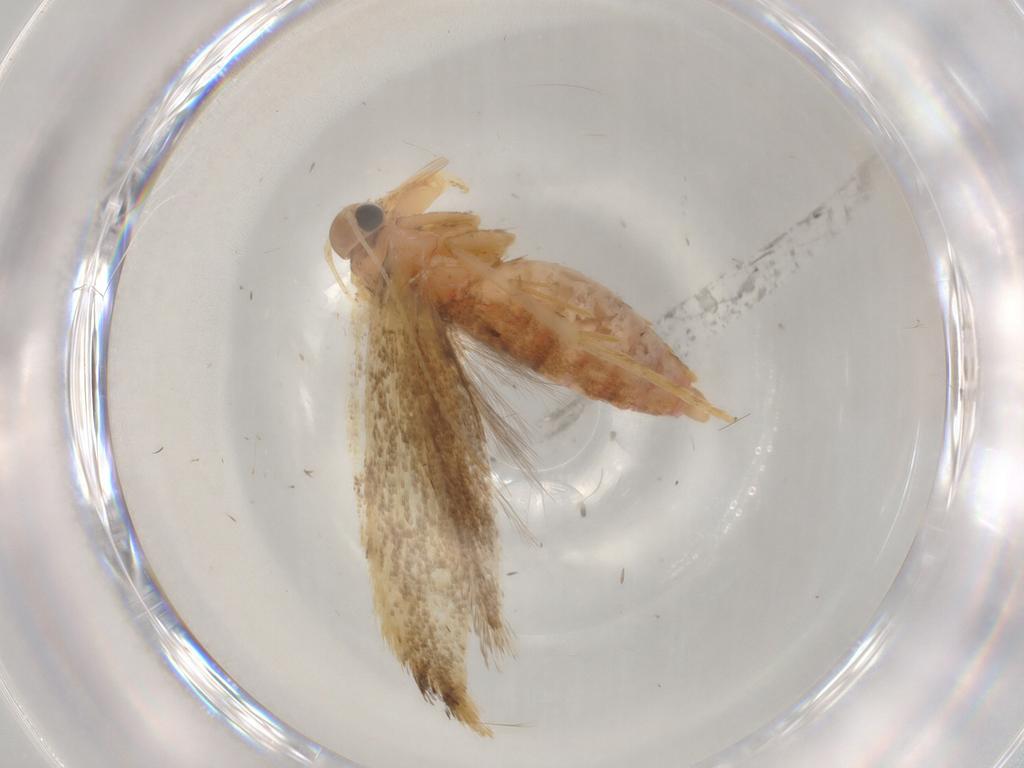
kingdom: Animalia
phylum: Arthropoda
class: Insecta
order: Lepidoptera
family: Autostichidae
